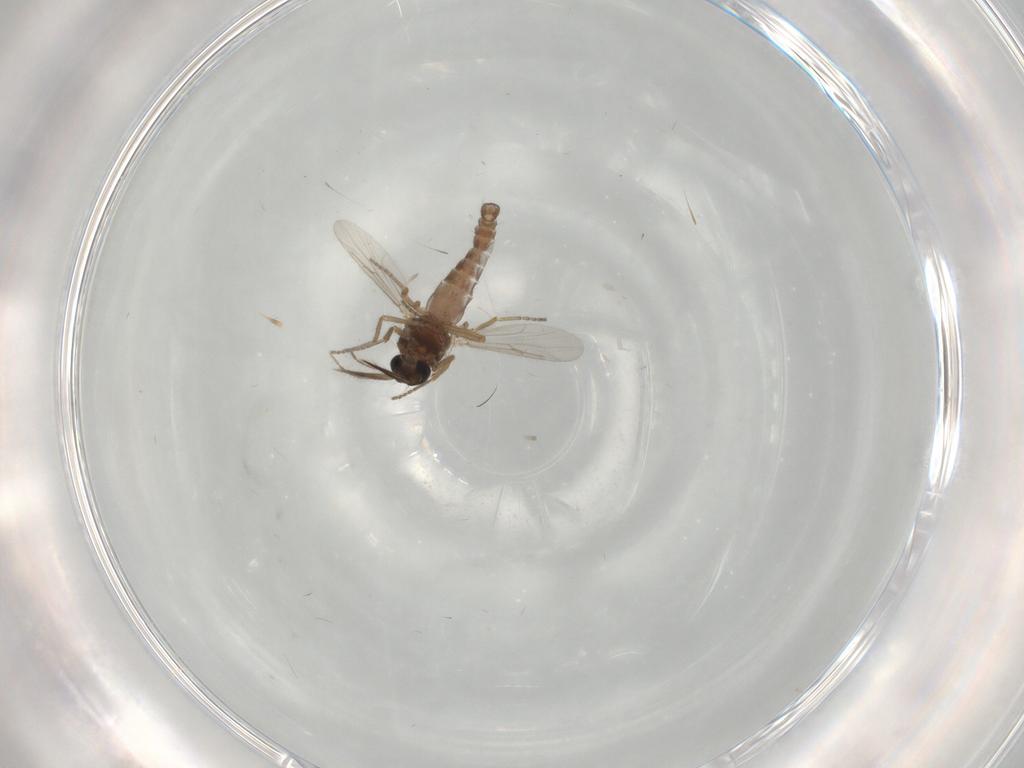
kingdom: Animalia
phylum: Arthropoda
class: Insecta
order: Diptera
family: Ceratopogonidae
